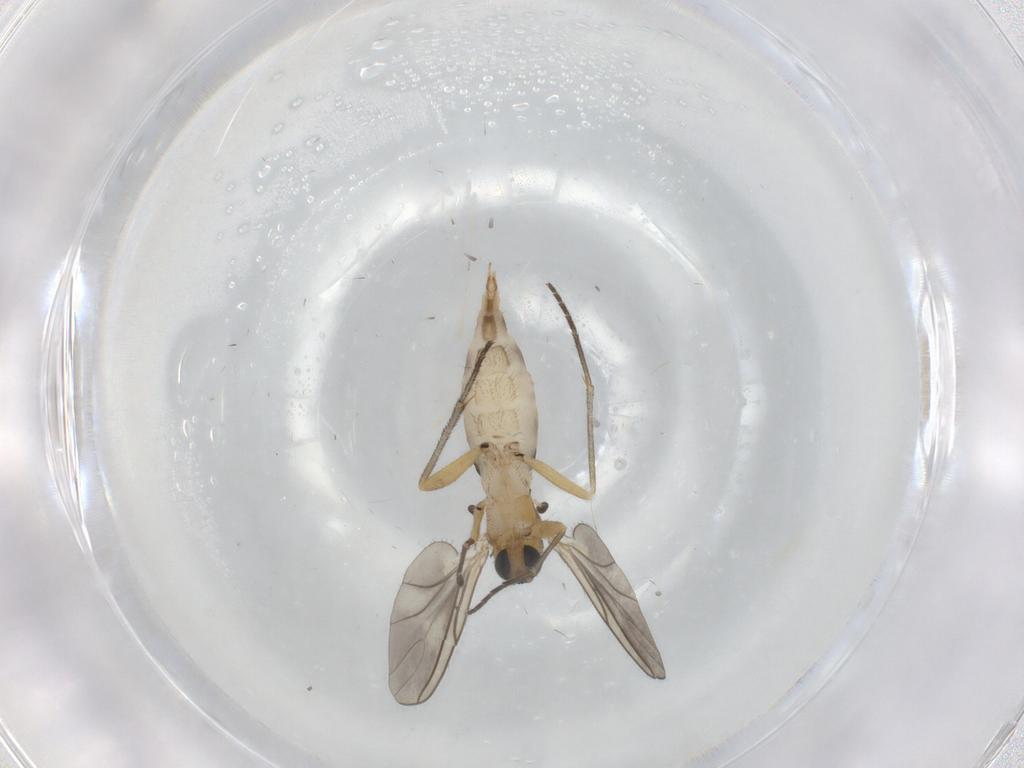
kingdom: Animalia
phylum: Arthropoda
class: Insecta
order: Diptera
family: Sciaridae
